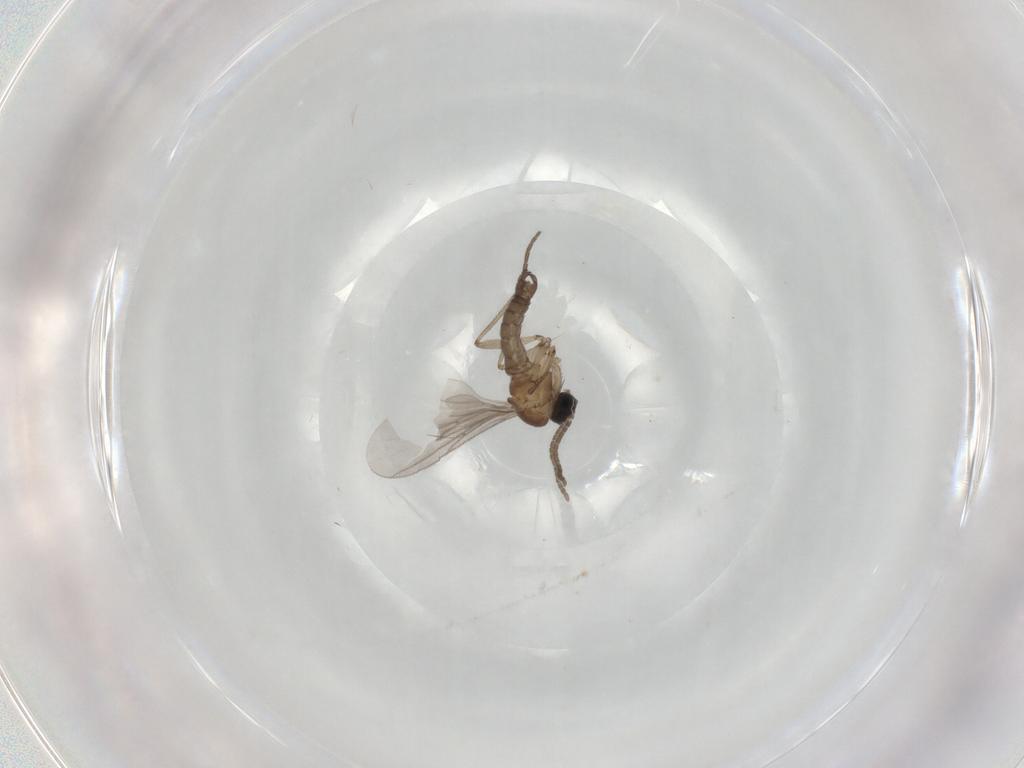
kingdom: Animalia
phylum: Arthropoda
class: Insecta
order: Diptera
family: Sciaridae
